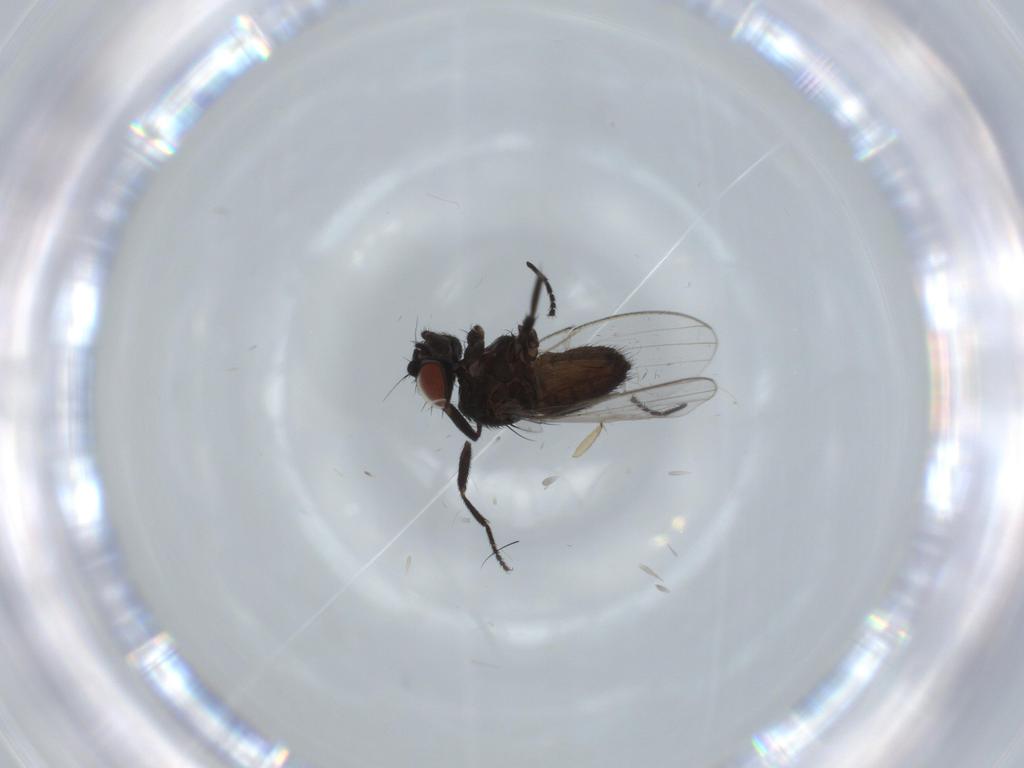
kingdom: Animalia
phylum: Arthropoda
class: Insecta
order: Diptera
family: Milichiidae
